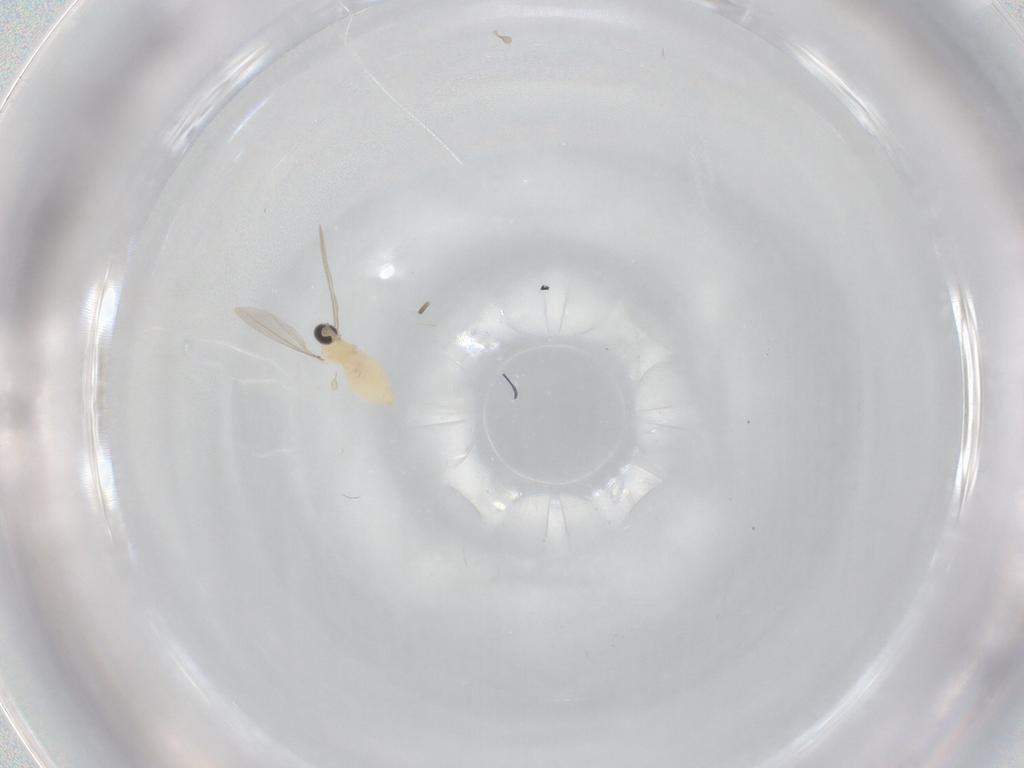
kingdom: Animalia
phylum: Arthropoda
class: Insecta
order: Diptera
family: Cecidomyiidae
